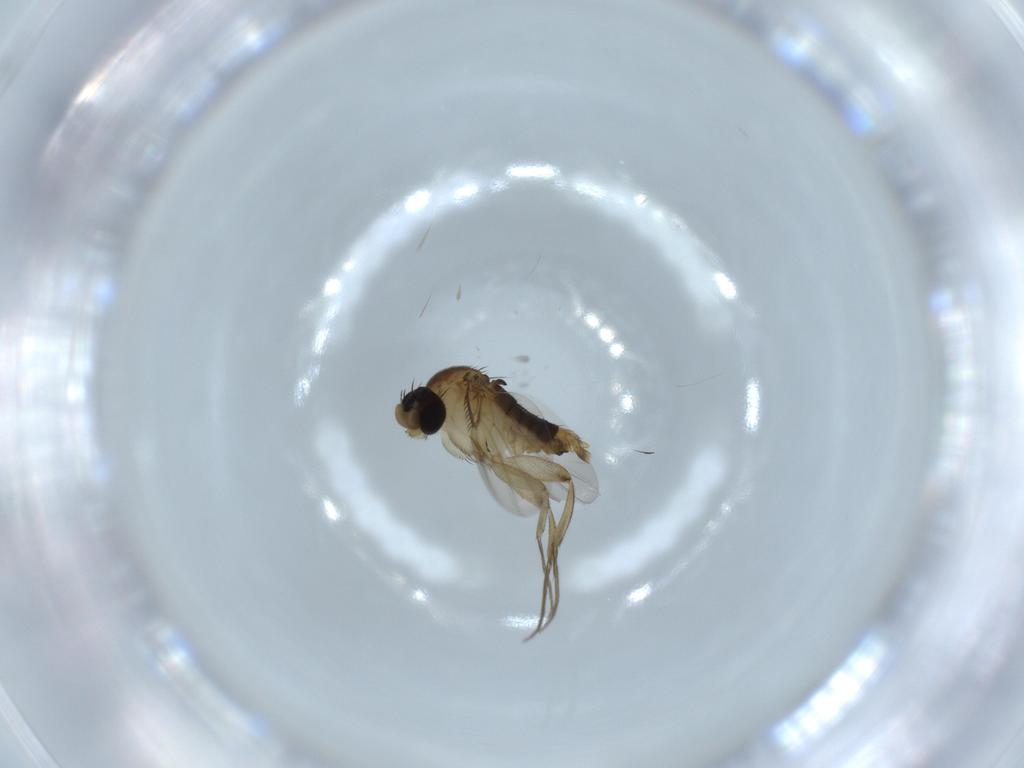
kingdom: Animalia
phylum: Arthropoda
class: Insecta
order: Diptera
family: Phoridae
